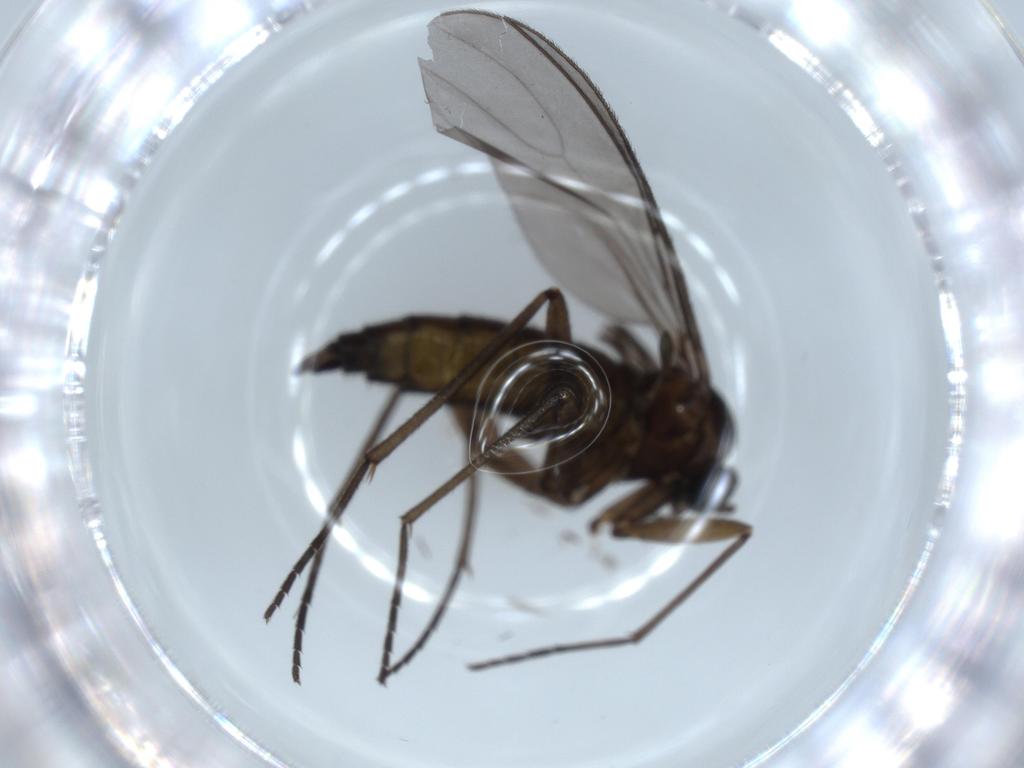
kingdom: Animalia
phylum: Arthropoda
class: Insecta
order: Diptera
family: Sciaridae
